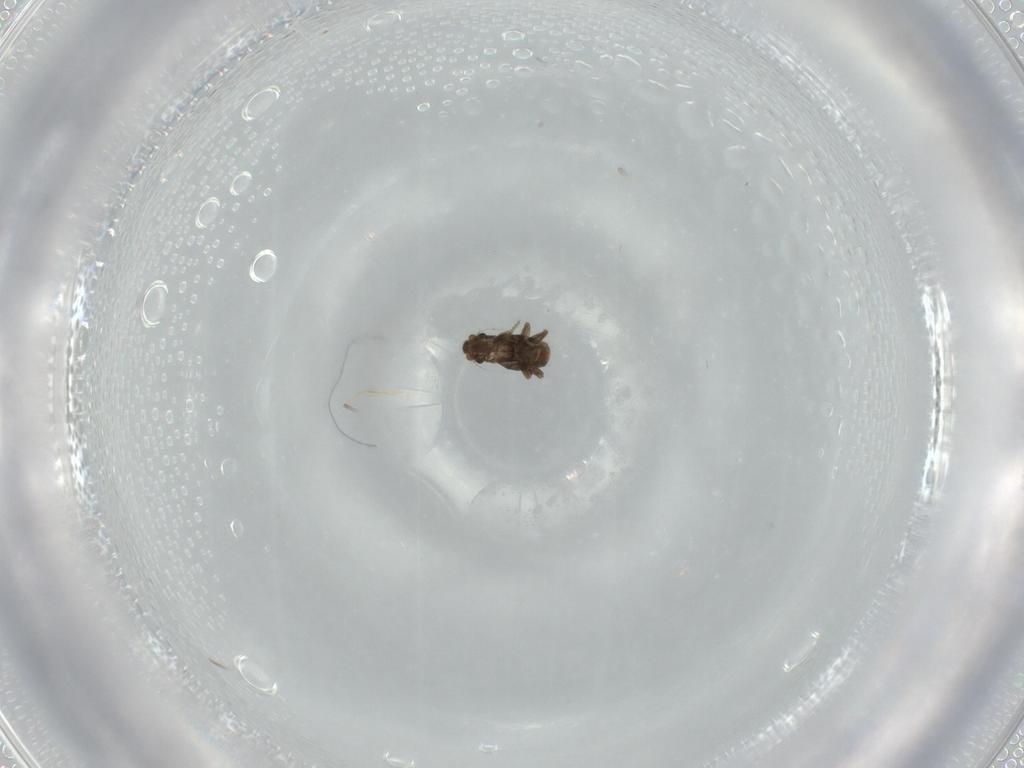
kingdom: Animalia
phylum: Arthropoda
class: Insecta
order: Diptera
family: Phoridae
